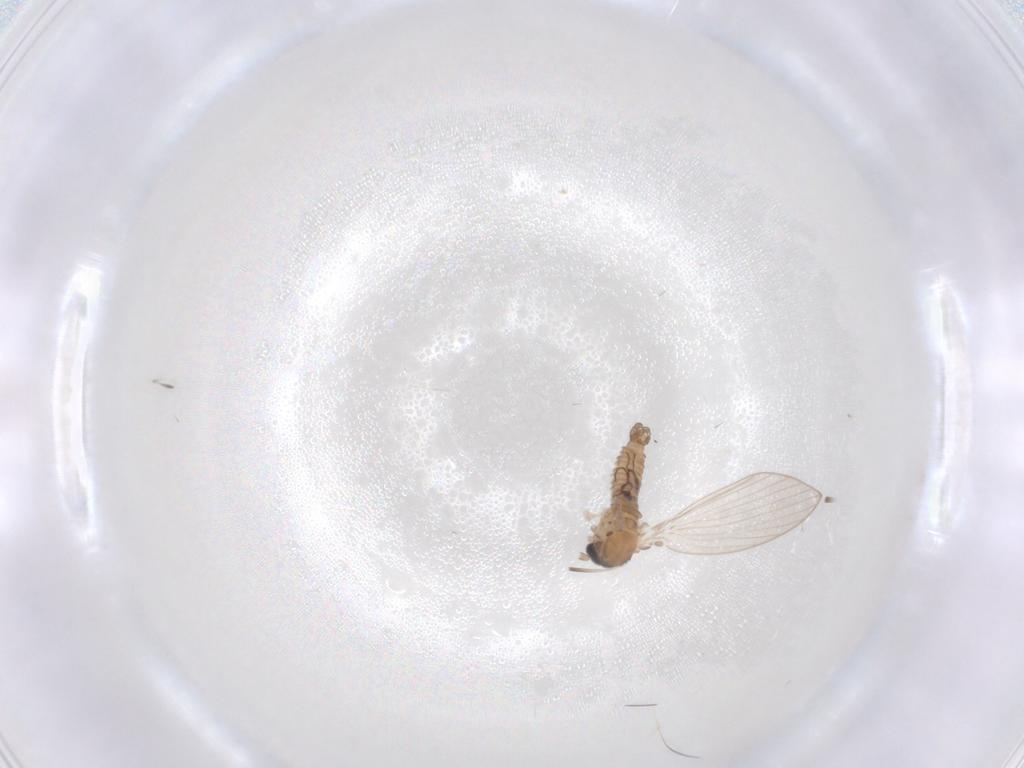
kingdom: Animalia
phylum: Arthropoda
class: Insecta
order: Diptera
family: Psychodidae
